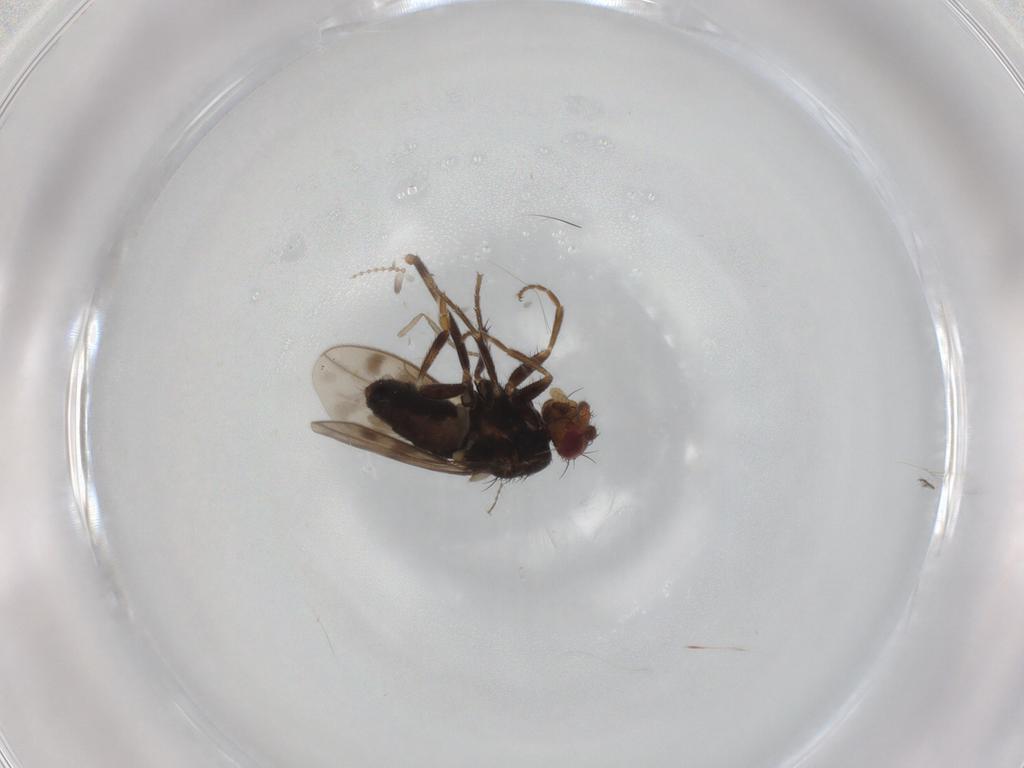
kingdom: Animalia
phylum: Arthropoda
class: Insecta
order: Diptera
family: Sphaeroceridae
